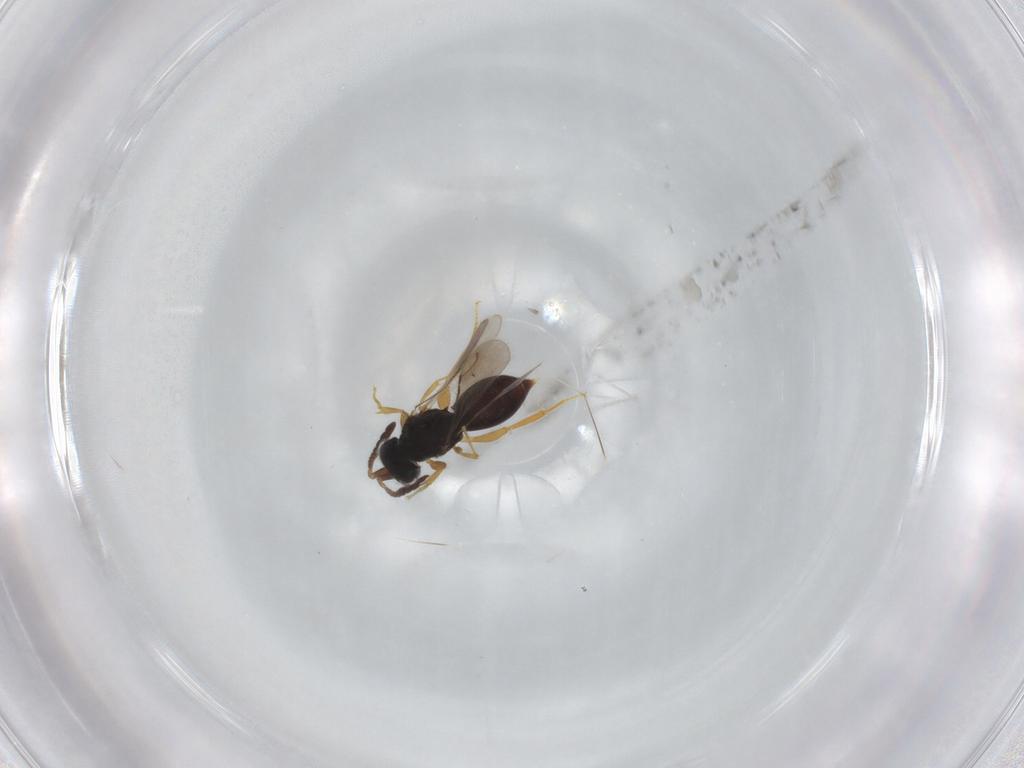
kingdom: Animalia
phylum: Arthropoda
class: Insecta
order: Hymenoptera
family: Ceraphronidae
